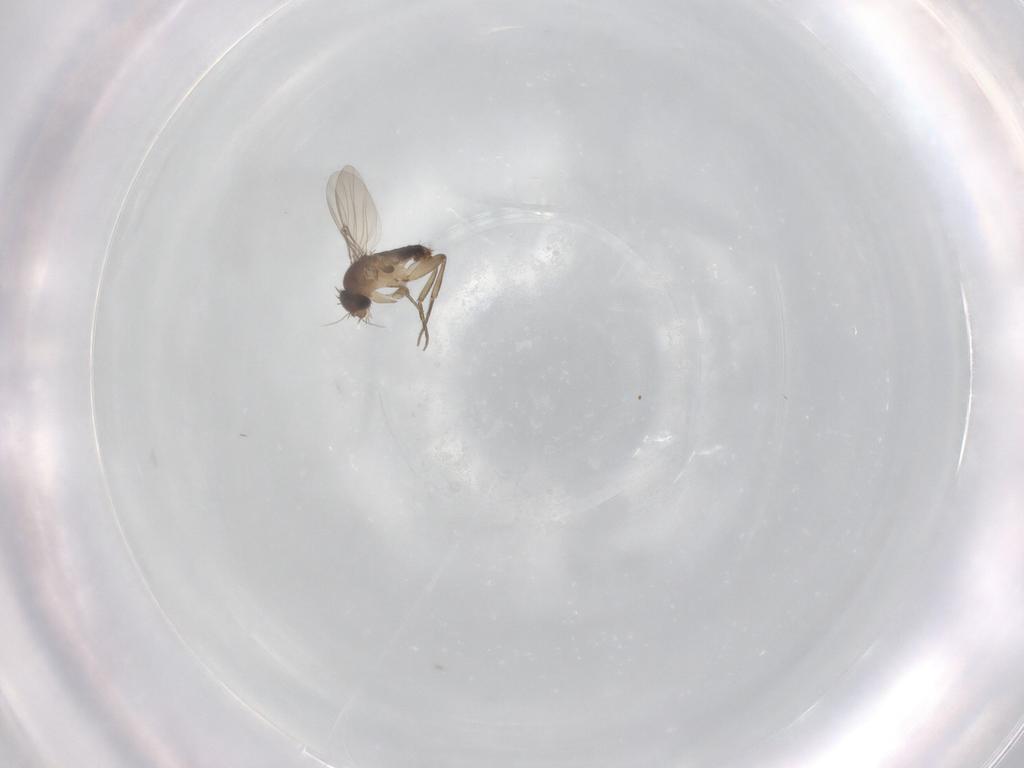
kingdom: Animalia
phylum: Arthropoda
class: Insecta
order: Diptera
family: Phoridae
